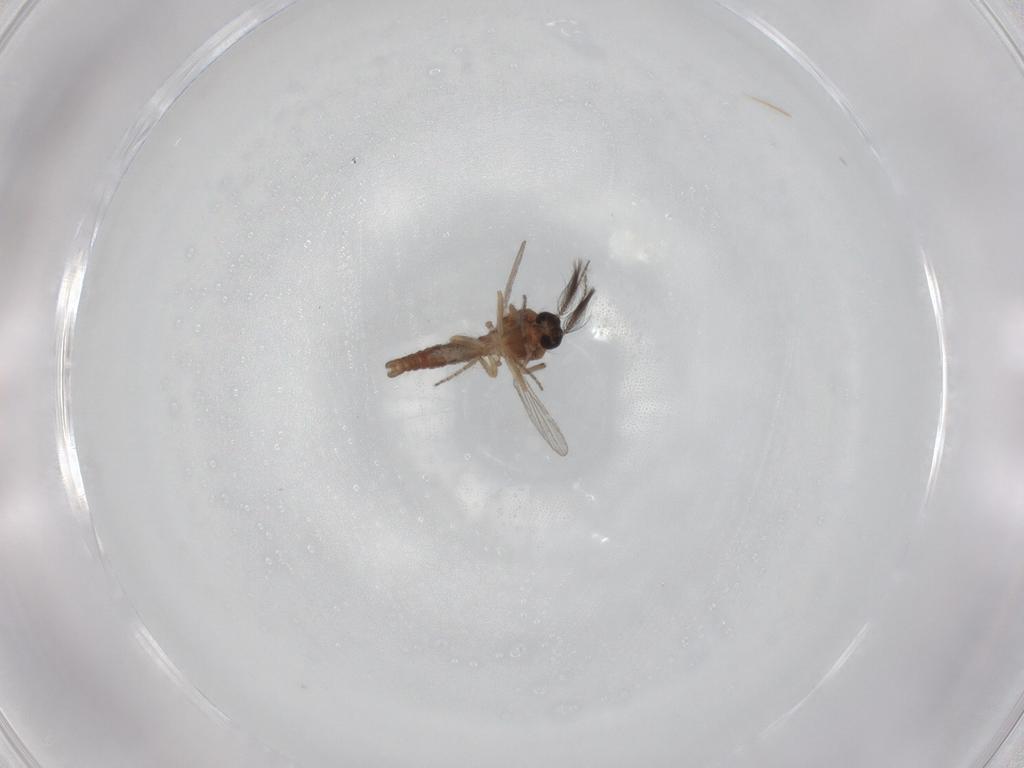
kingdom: Animalia
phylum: Arthropoda
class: Insecta
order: Diptera
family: Ceratopogonidae
